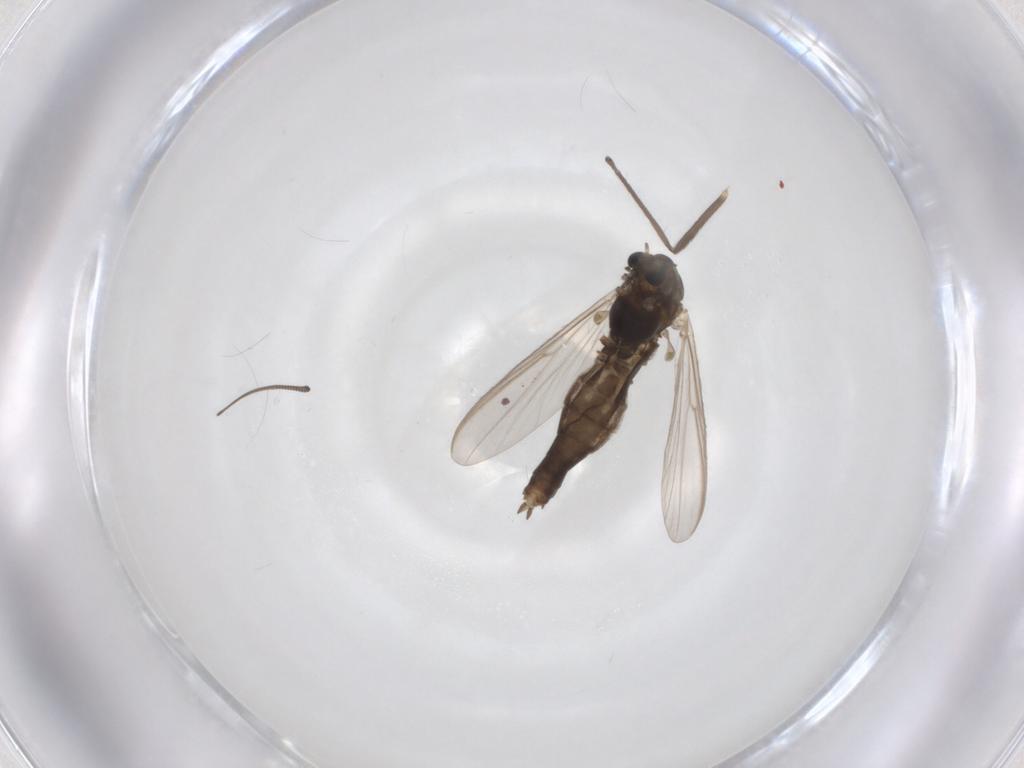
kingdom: Animalia
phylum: Arthropoda
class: Insecta
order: Diptera
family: Chironomidae
